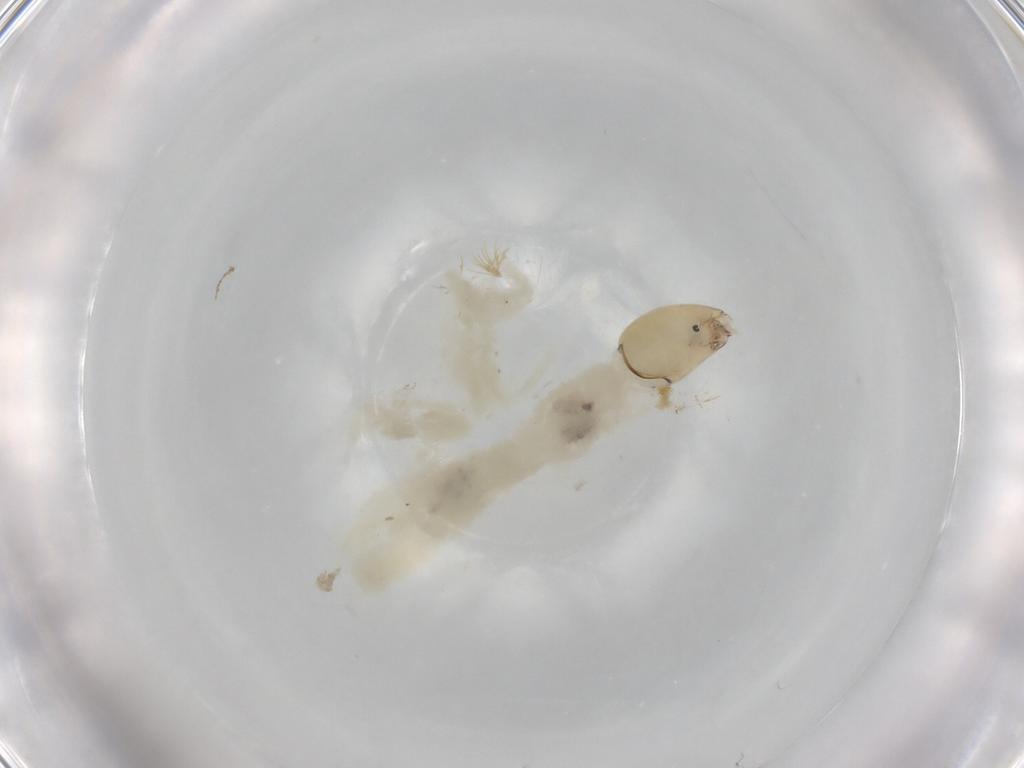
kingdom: Animalia
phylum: Arthropoda
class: Insecta
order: Diptera
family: Chironomidae
